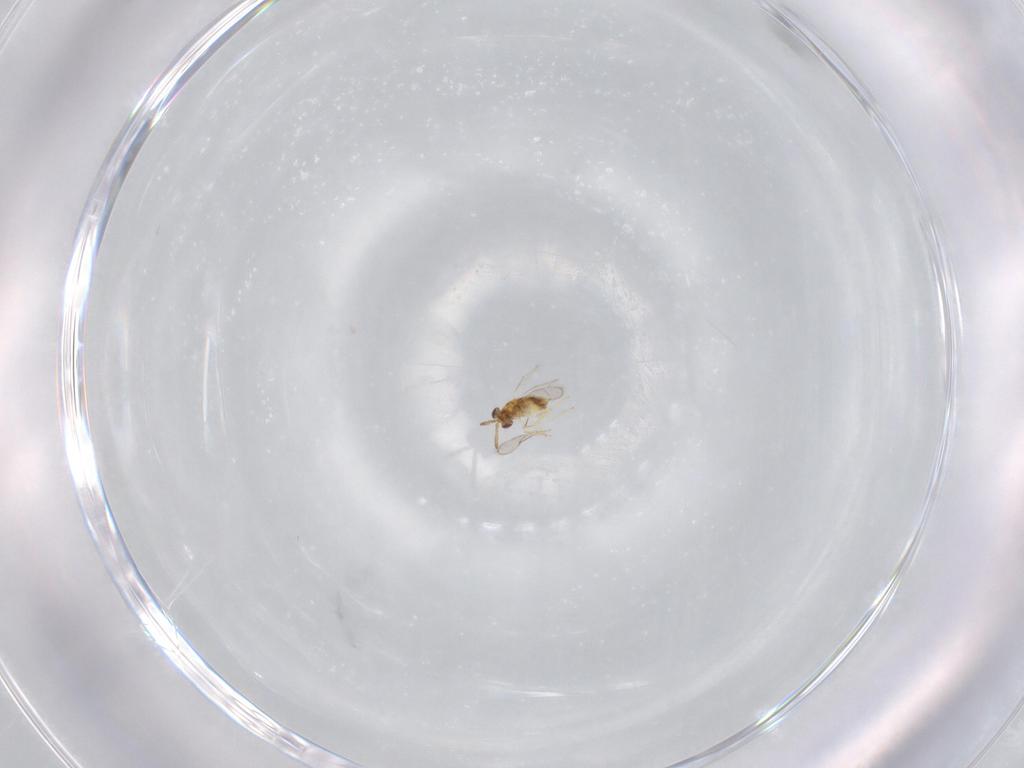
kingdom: Animalia
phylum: Arthropoda
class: Insecta
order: Hymenoptera
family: Aphelinidae
